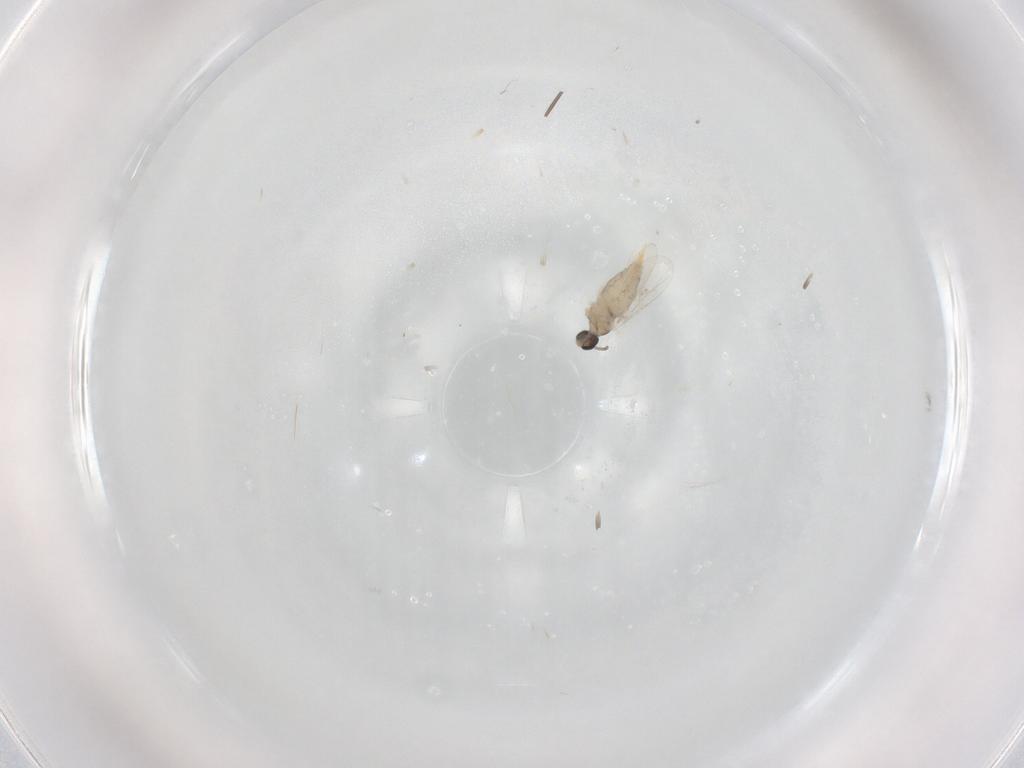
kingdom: Animalia
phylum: Arthropoda
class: Insecta
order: Diptera
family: Cecidomyiidae
